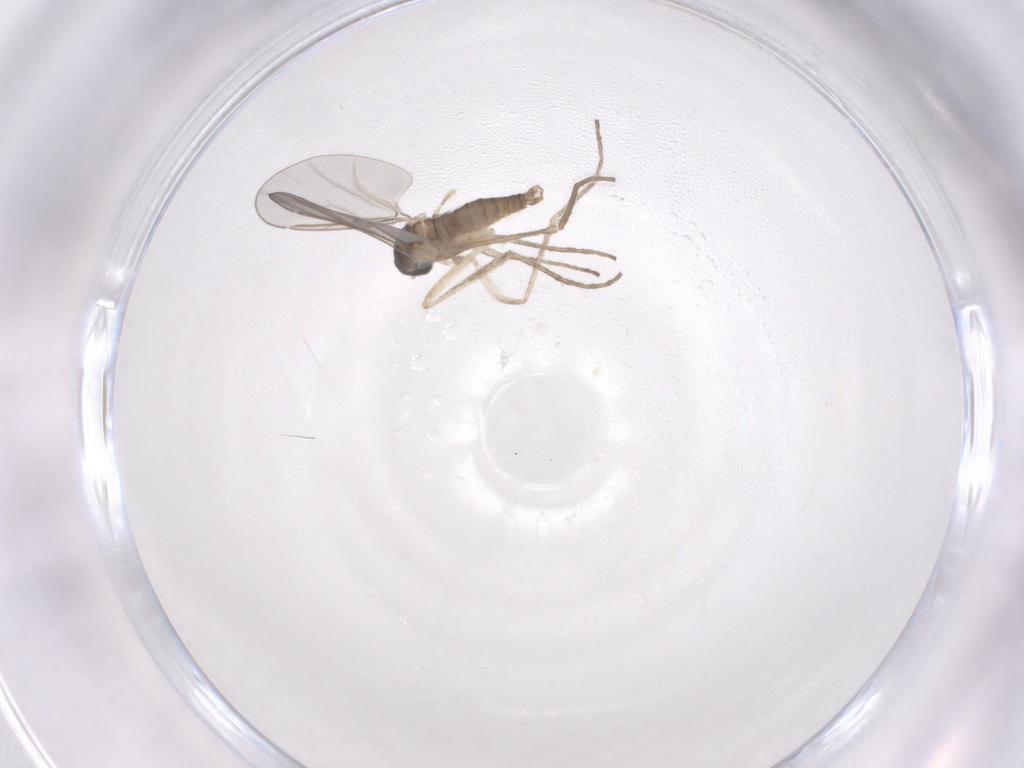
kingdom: Animalia
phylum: Arthropoda
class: Insecta
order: Diptera
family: Cecidomyiidae
